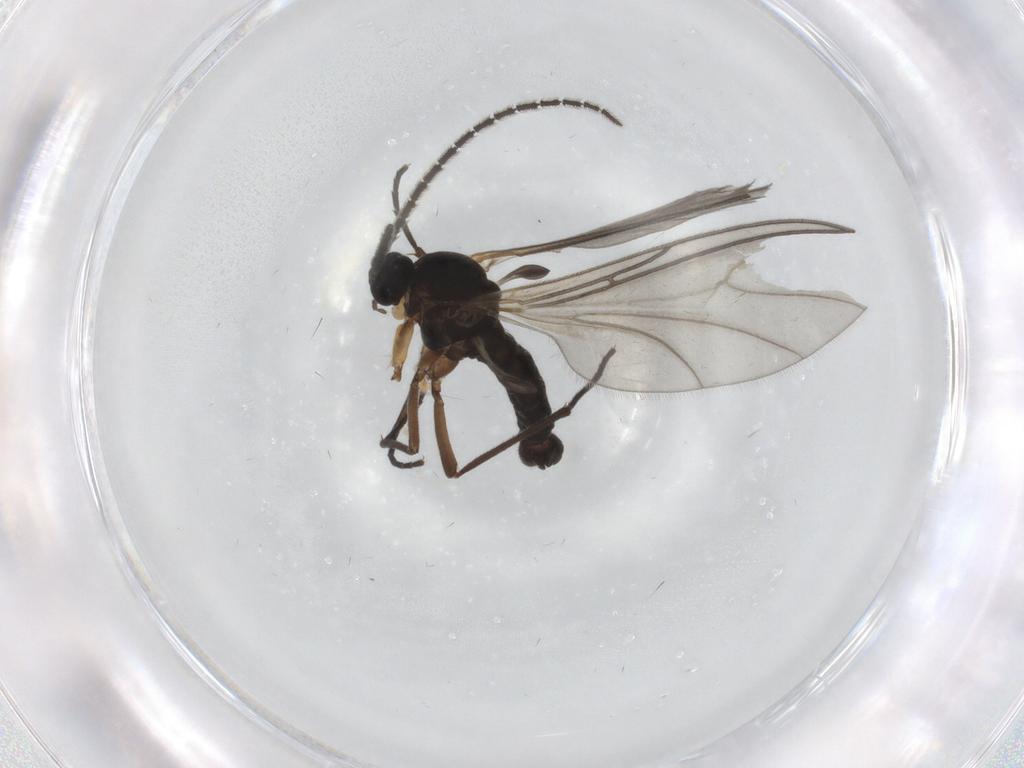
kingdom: Animalia
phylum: Arthropoda
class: Insecta
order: Diptera
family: Sciaridae
